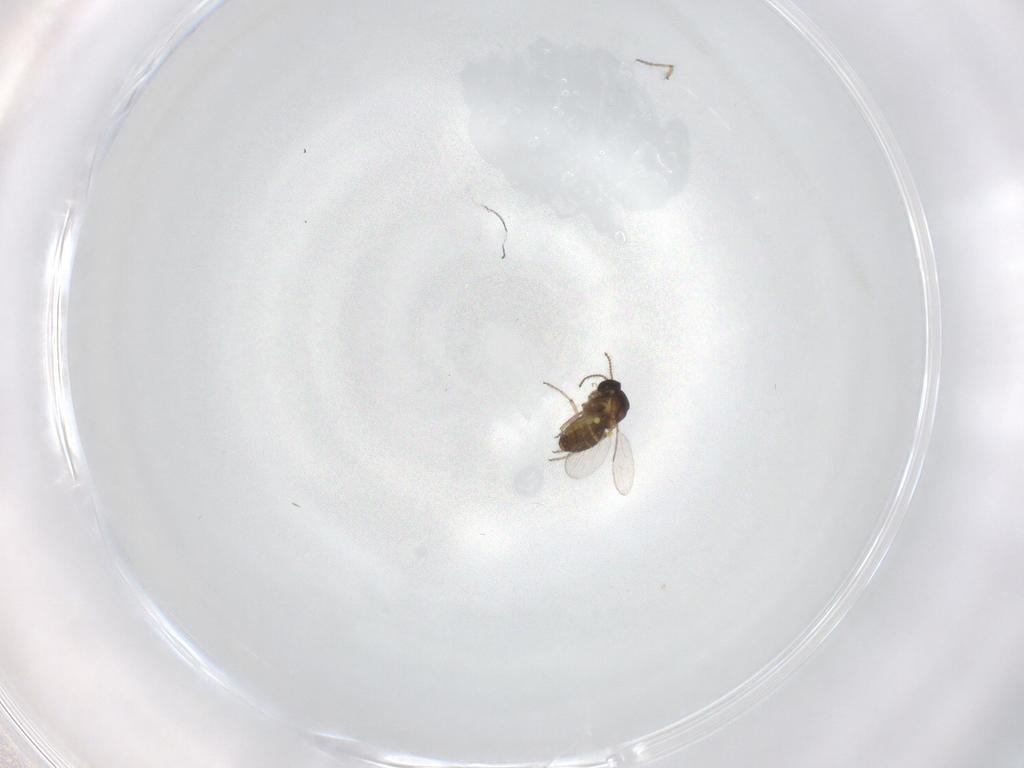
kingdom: Animalia
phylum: Arthropoda
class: Insecta
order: Diptera
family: Ceratopogonidae
